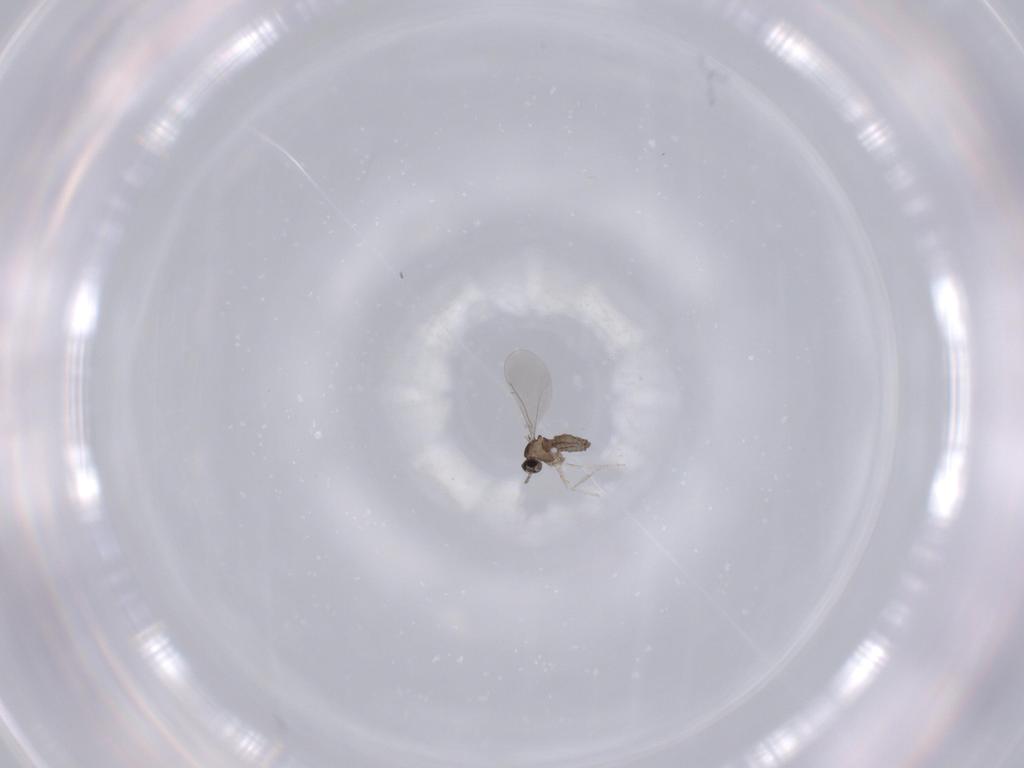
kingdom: Animalia
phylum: Arthropoda
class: Insecta
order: Diptera
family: Cecidomyiidae
